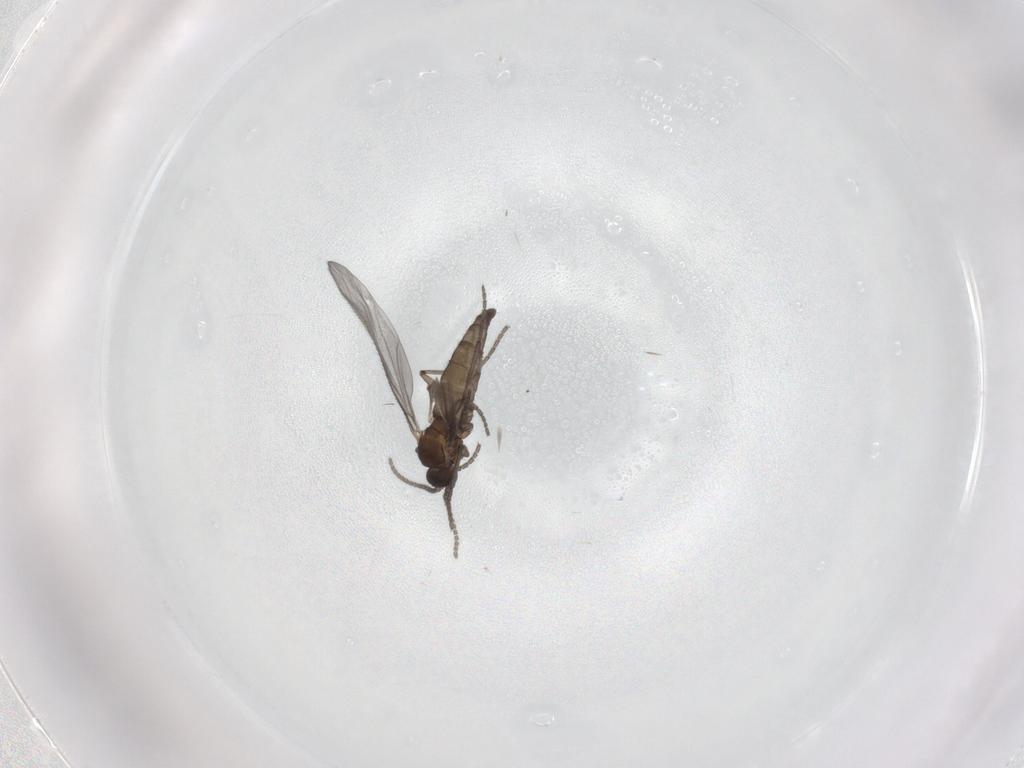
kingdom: Animalia
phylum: Arthropoda
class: Insecta
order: Diptera
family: Sciaridae
